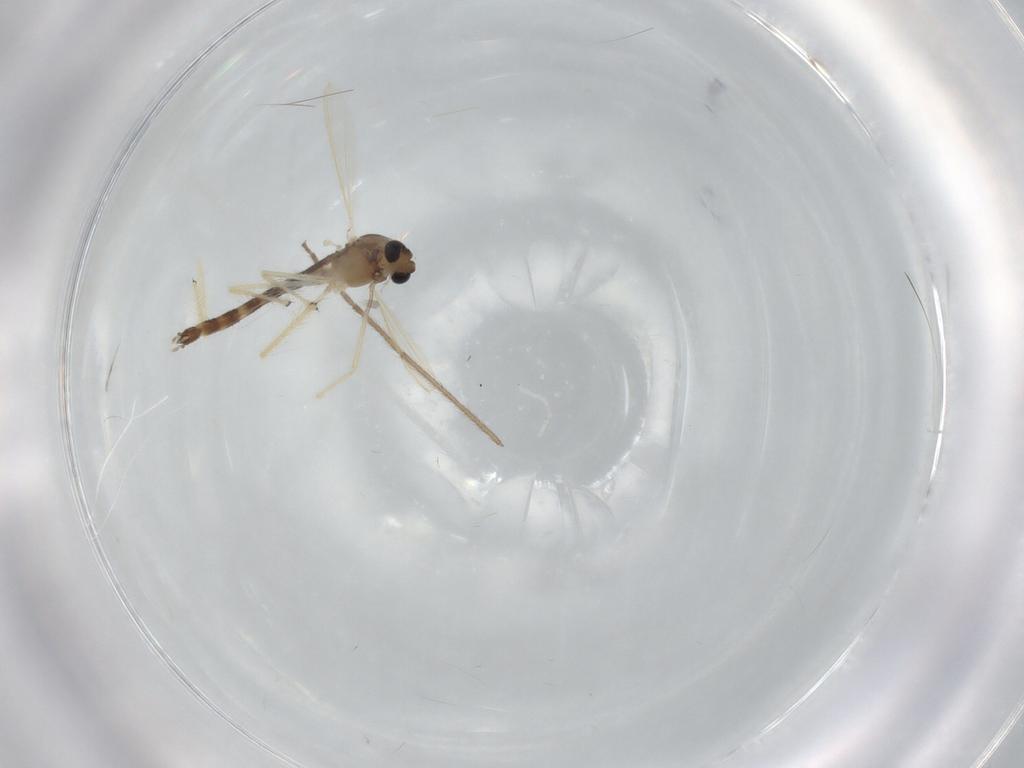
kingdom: Animalia
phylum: Arthropoda
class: Insecta
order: Diptera
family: Chironomidae
